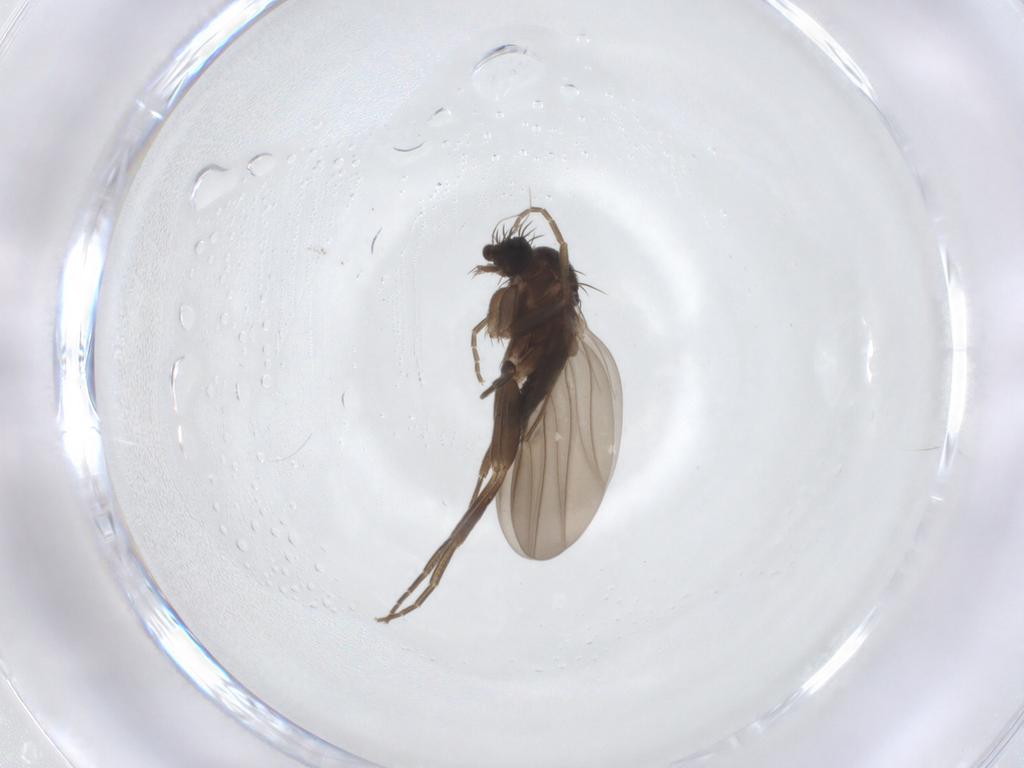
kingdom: Animalia
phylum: Arthropoda
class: Insecta
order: Diptera
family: Phoridae
